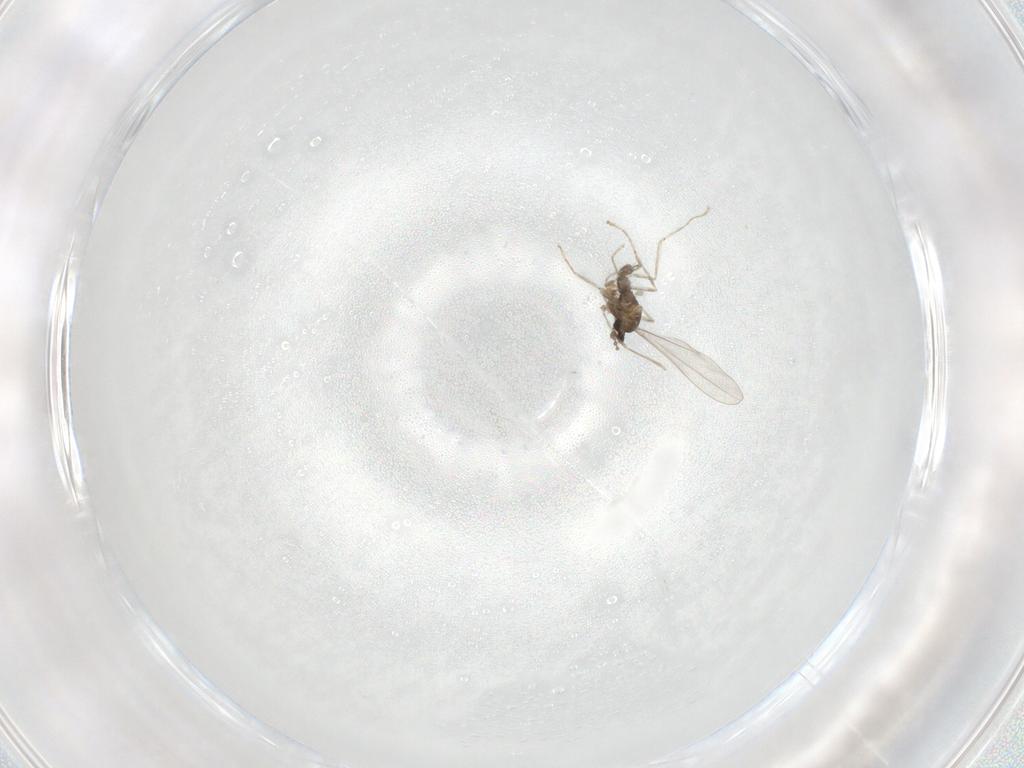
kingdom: Animalia
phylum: Arthropoda
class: Insecta
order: Diptera
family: Anthomyiidae
